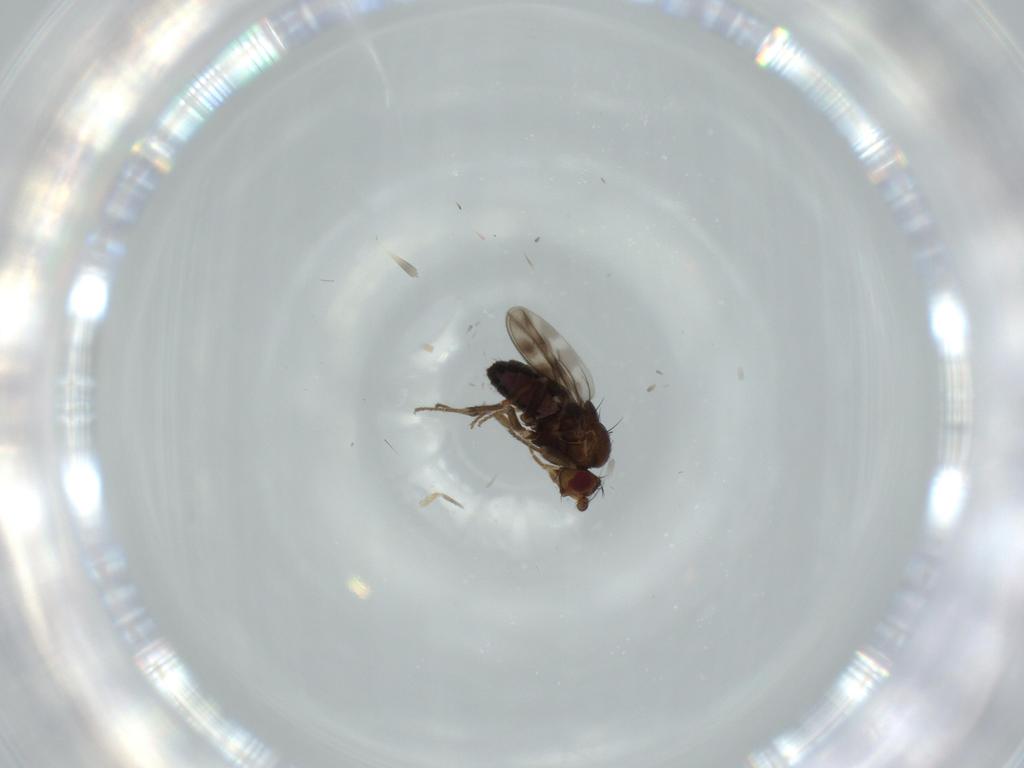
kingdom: Animalia
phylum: Arthropoda
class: Insecta
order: Diptera
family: Sphaeroceridae
